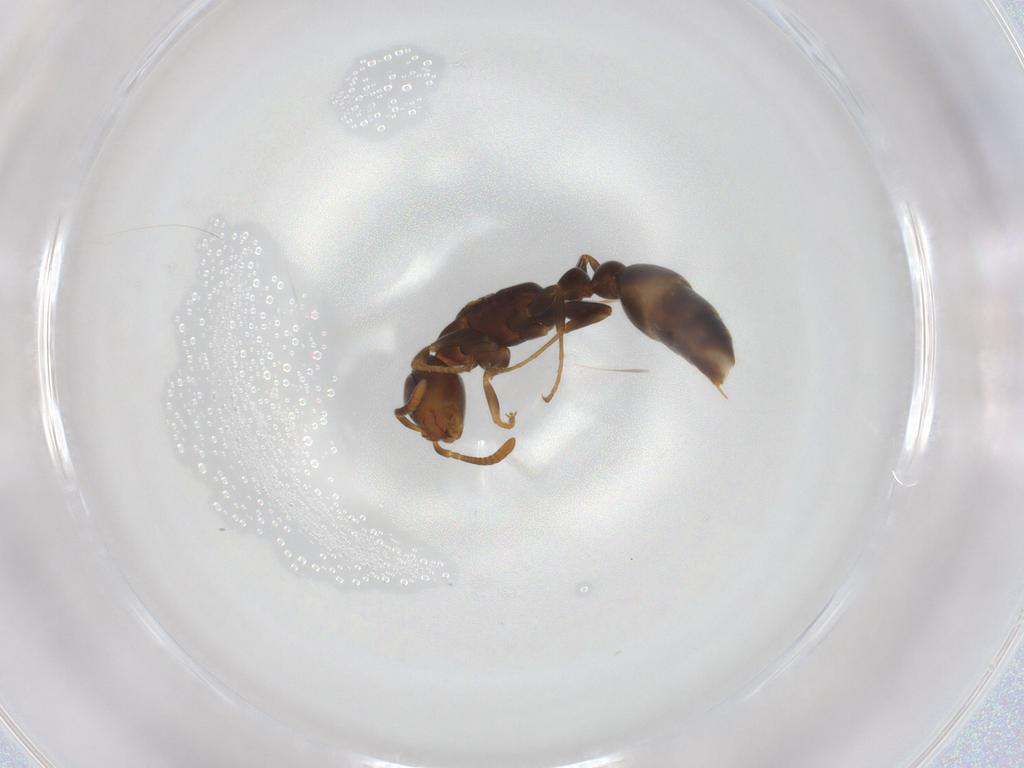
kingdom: Animalia
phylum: Arthropoda
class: Insecta
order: Hymenoptera
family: Formicidae
